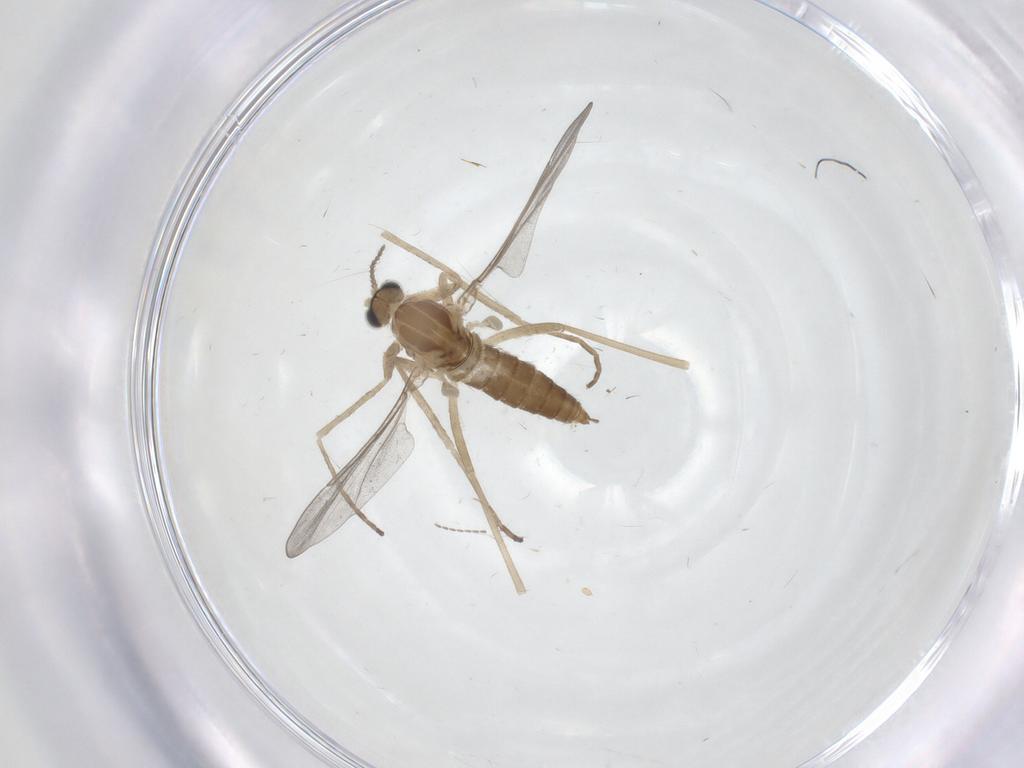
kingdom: Animalia
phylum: Arthropoda
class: Insecta
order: Diptera
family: Cecidomyiidae
